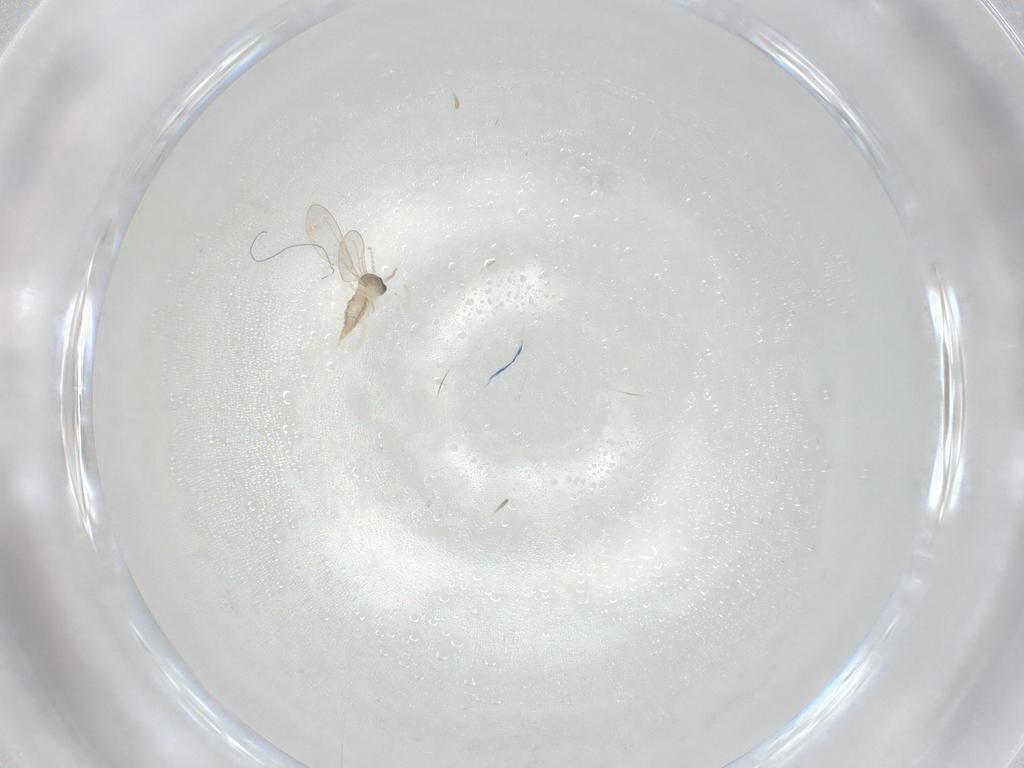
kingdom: Animalia
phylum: Arthropoda
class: Insecta
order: Diptera
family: Cecidomyiidae
